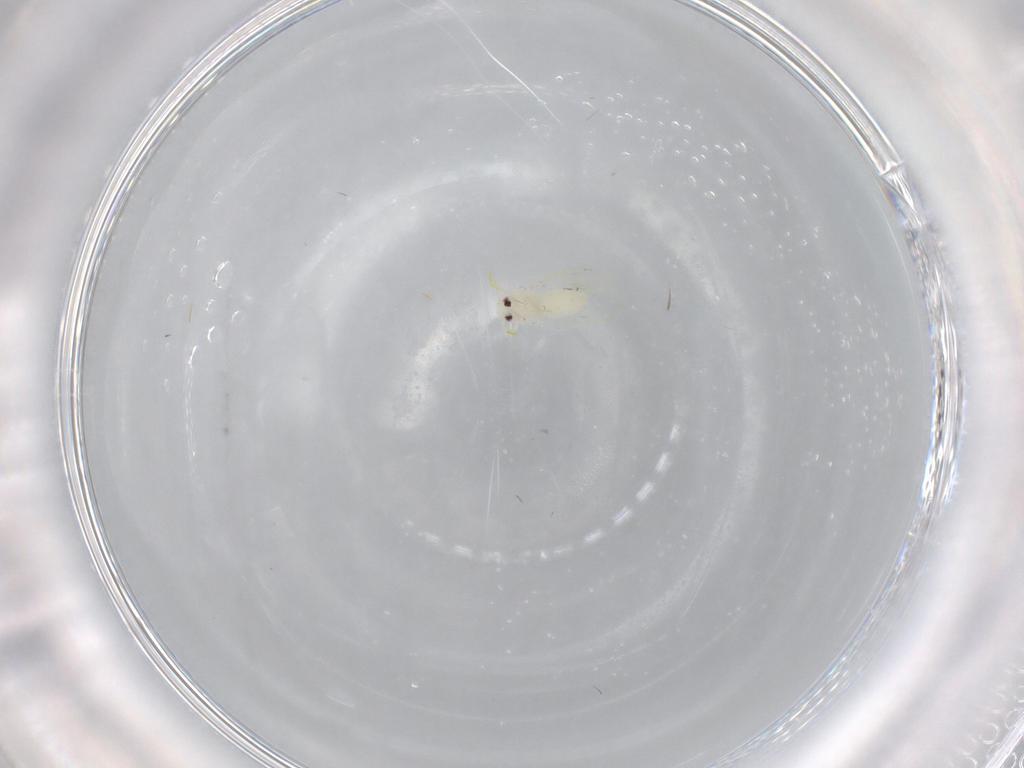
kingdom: Animalia
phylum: Arthropoda
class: Insecta
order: Hemiptera
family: Aleyrodidae
